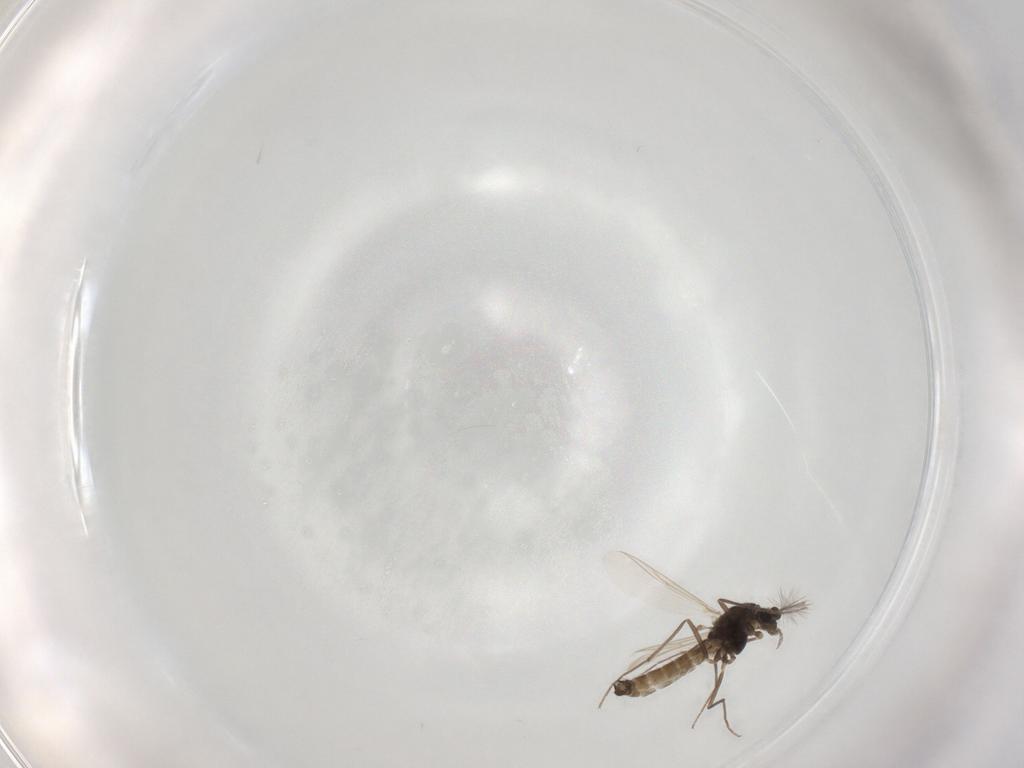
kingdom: Animalia
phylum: Arthropoda
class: Insecta
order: Diptera
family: Chironomidae
